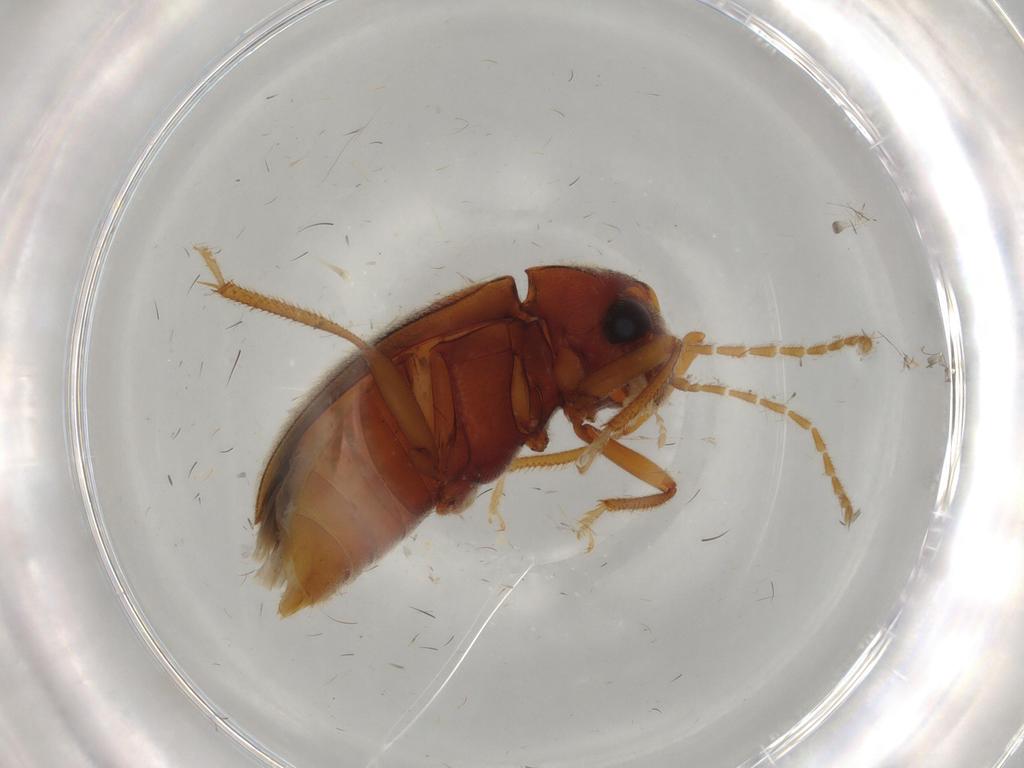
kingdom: Animalia
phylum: Arthropoda
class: Insecta
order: Coleoptera
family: Ptilodactylidae
